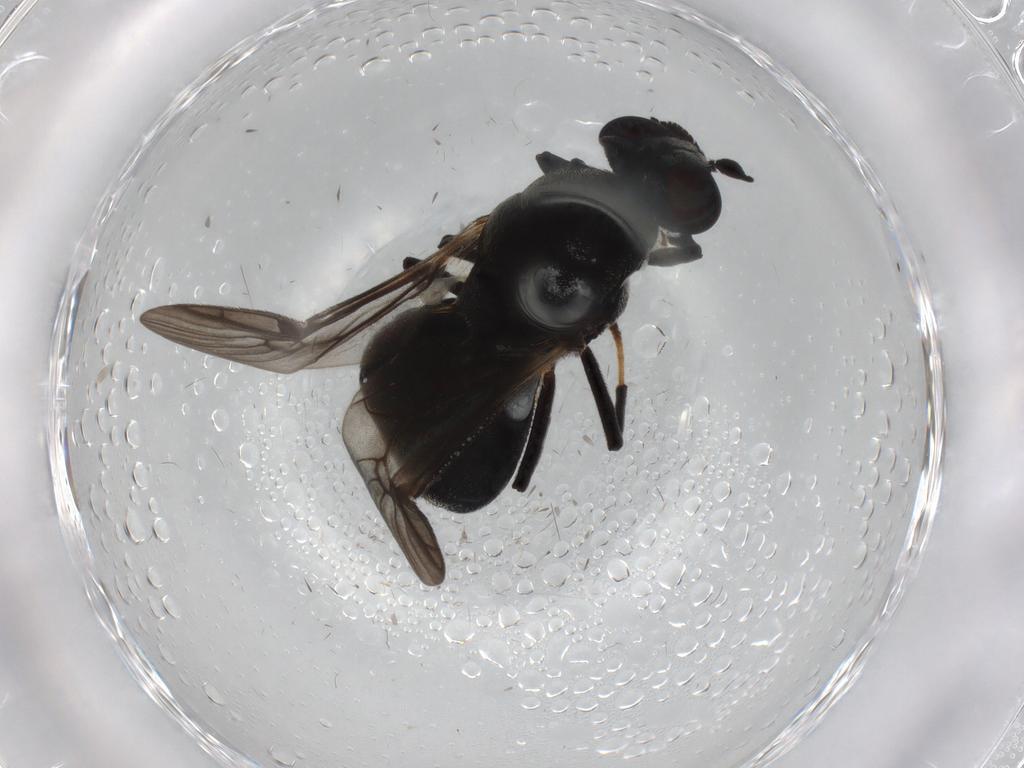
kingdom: Animalia
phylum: Arthropoda
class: Insecta
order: Diptera
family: Stratiomyidae
